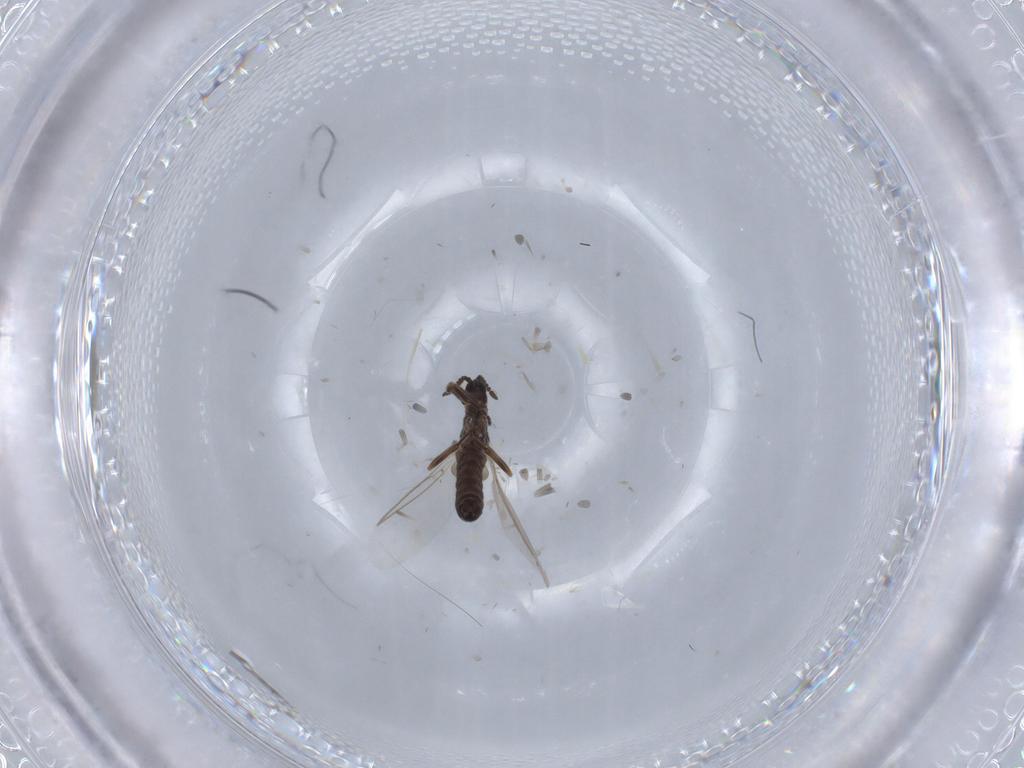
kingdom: Animalia
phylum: Arthropoda
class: Insecta
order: Diptera
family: Scatopsidae
